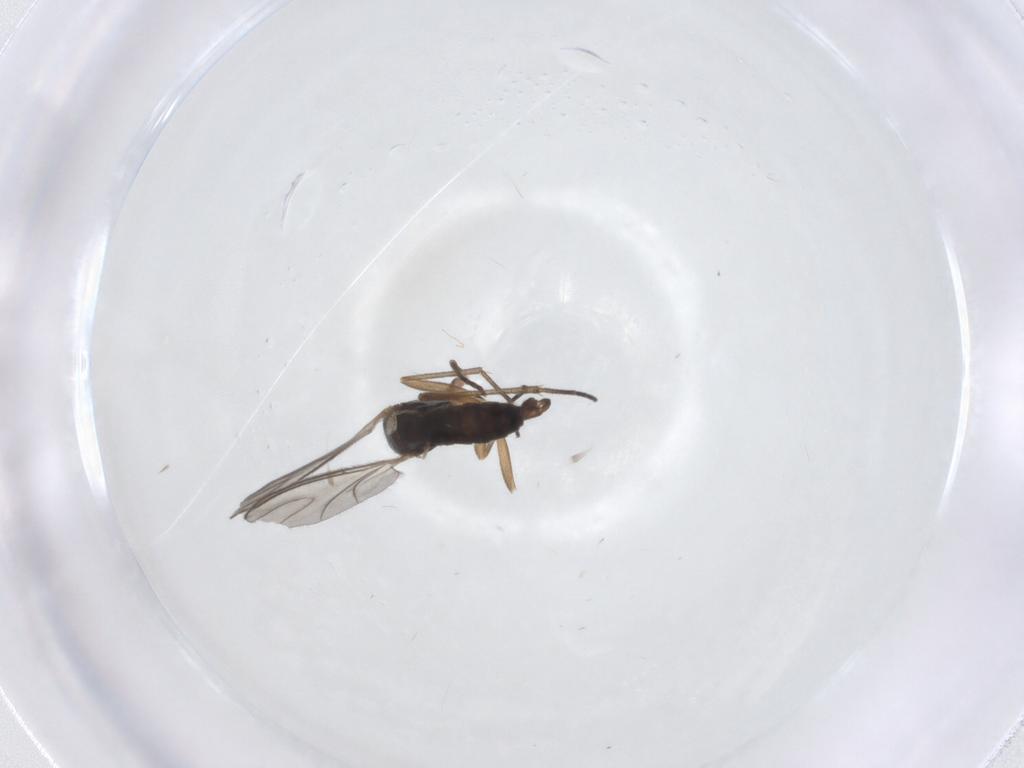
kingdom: Animalia
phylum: Arthropoda
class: Insecta
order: Diptera
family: Sciaridae
